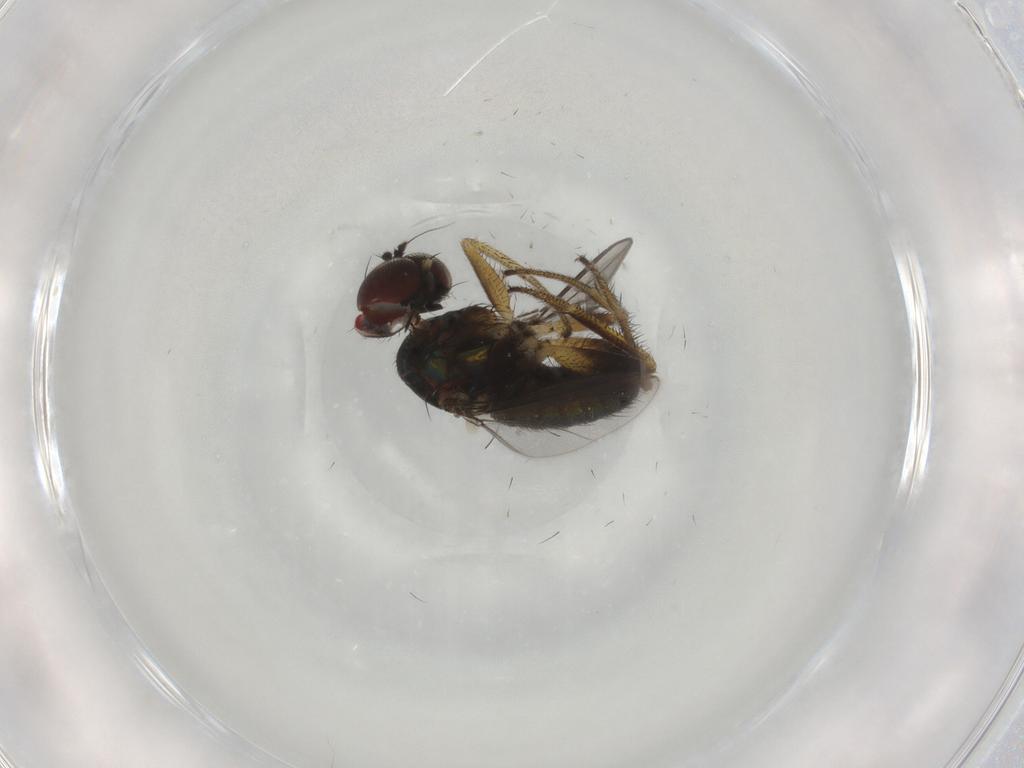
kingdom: Animalia
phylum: Arthropoda
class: Insecta
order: Diptera
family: Dolichopodidae
